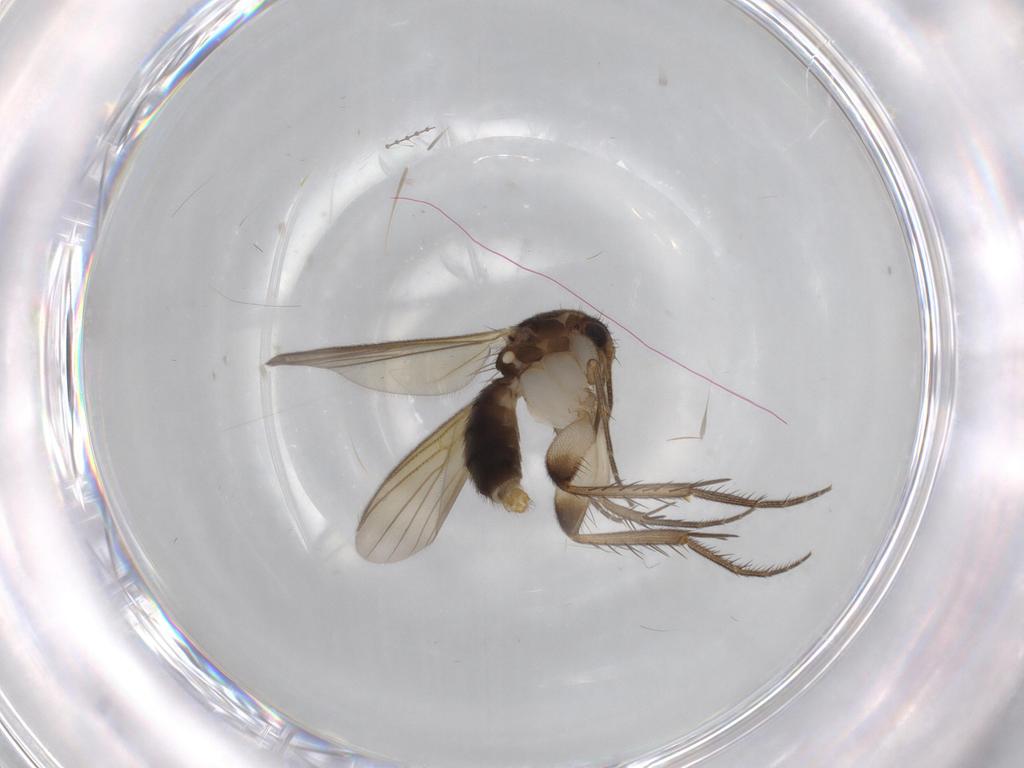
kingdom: Animalia
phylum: Arthropoda
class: Insecta
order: Diptera
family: Mycetophilidae
